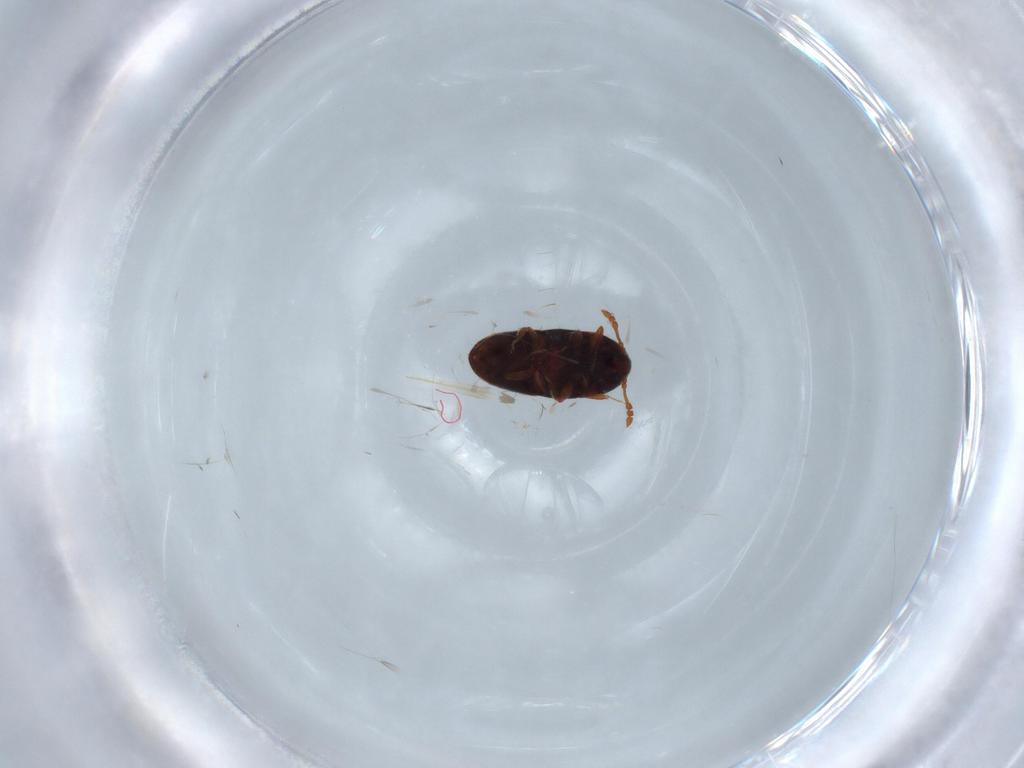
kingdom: Animalia
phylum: Arthropoda
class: Insecta
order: Coleoptera
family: Throscidae
